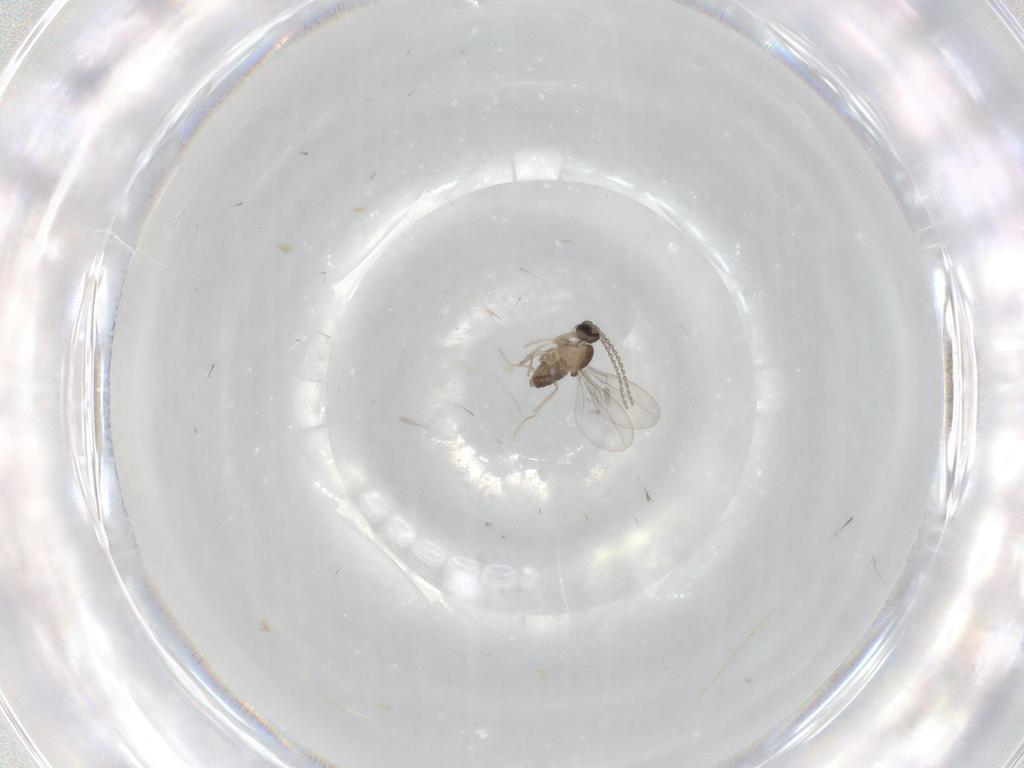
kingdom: Animalia
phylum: Arthropoda
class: Insecta
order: Diptera
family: Cecidomyiidae
